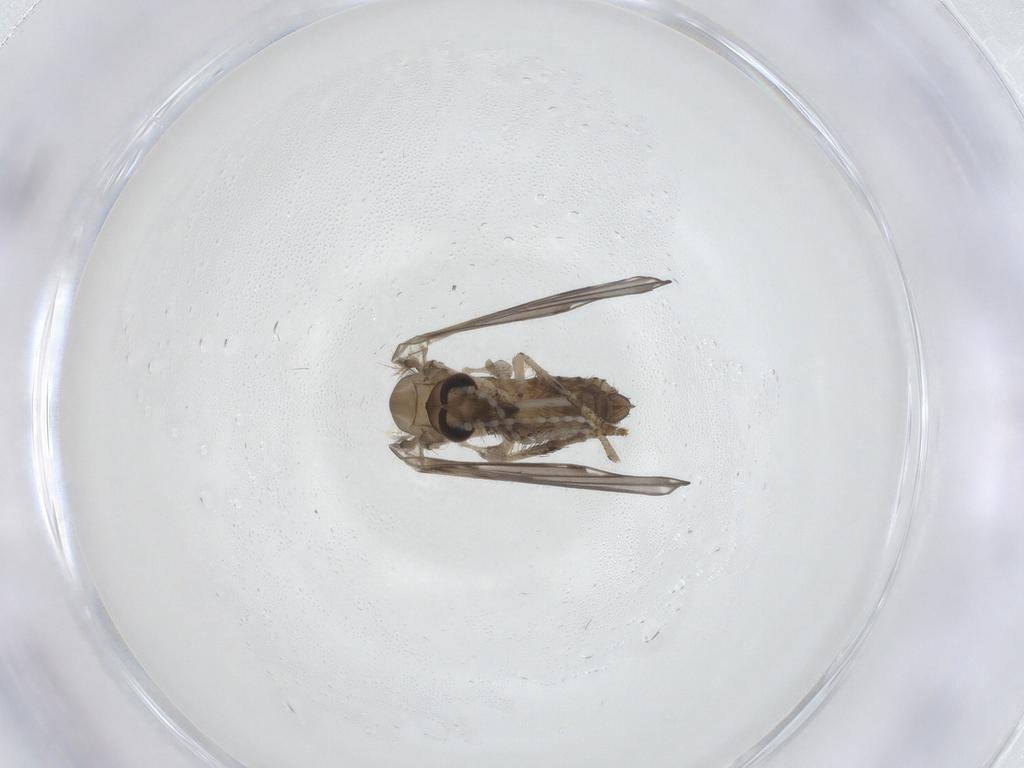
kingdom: Animalia
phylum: Arthropoda
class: Insecta
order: Diptera
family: Psychodidae
